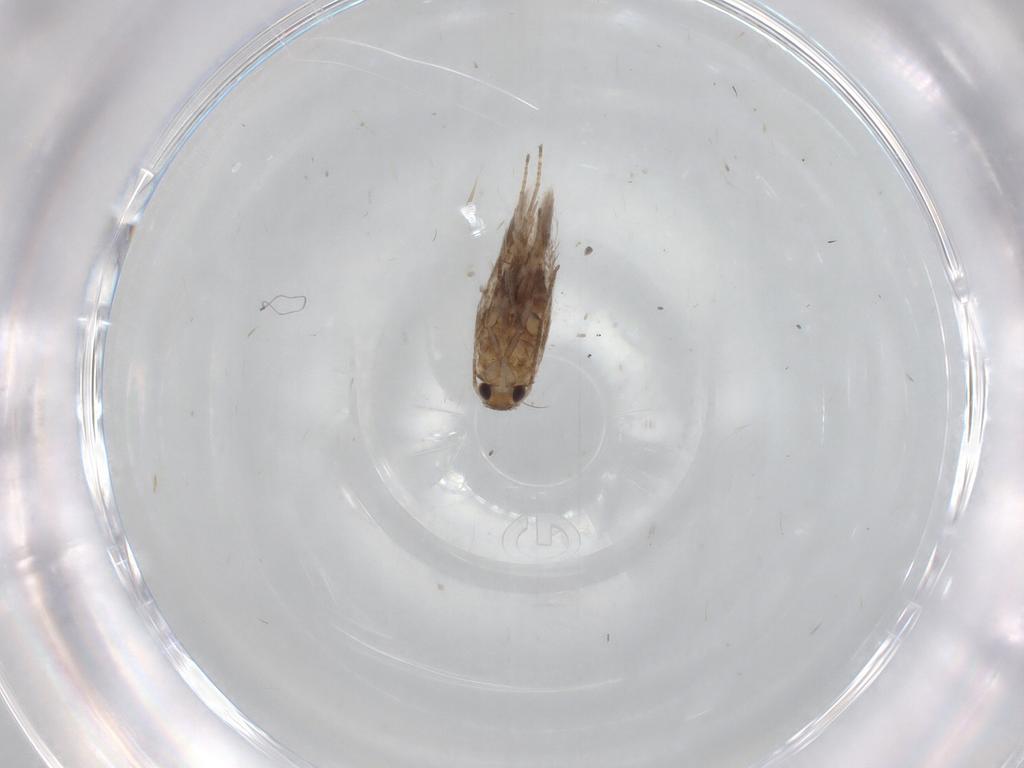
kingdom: Animalia
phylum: Arthropoda
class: Insecta
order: Lepidoptera
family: Nymphalidae
